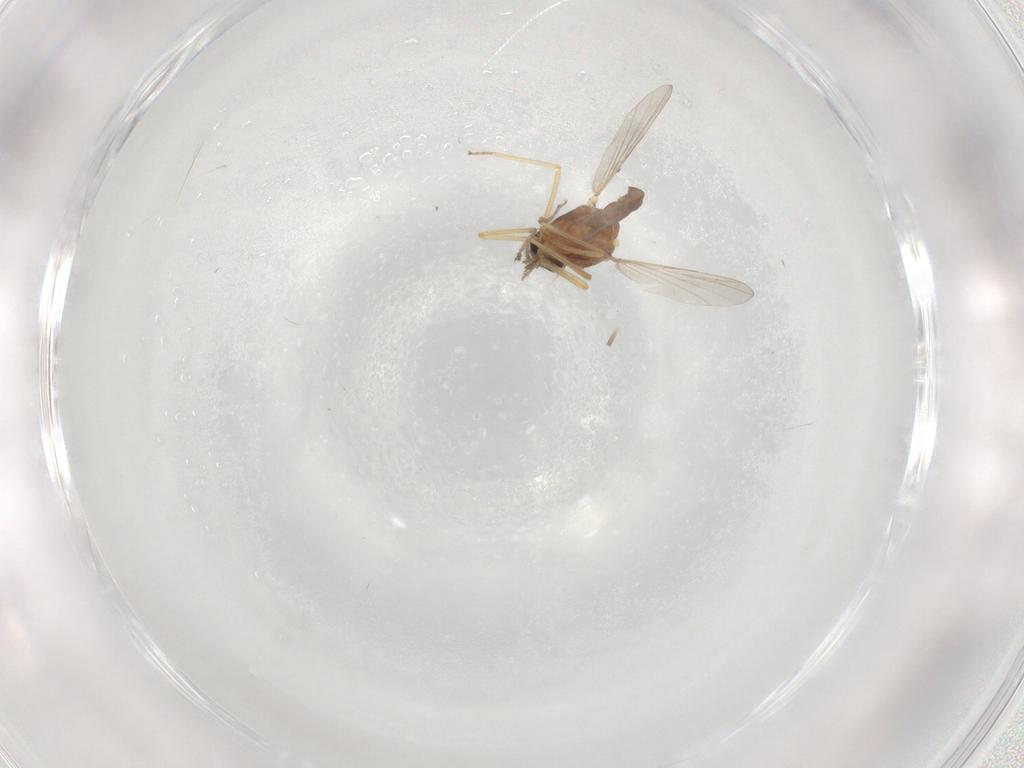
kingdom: Animalia
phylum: Arthropoda
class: Insecta
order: Diptera
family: Ceratopogonidae
